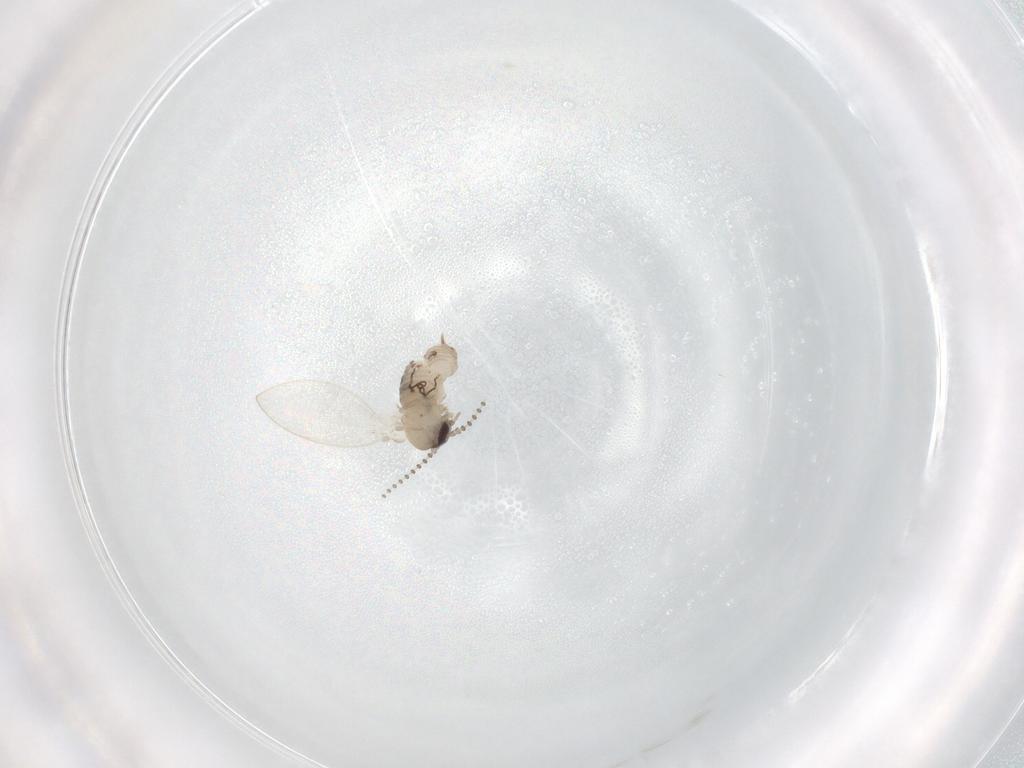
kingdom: Animalia
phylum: Arthropoda
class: Insecta
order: Diptera
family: Psychodidae
